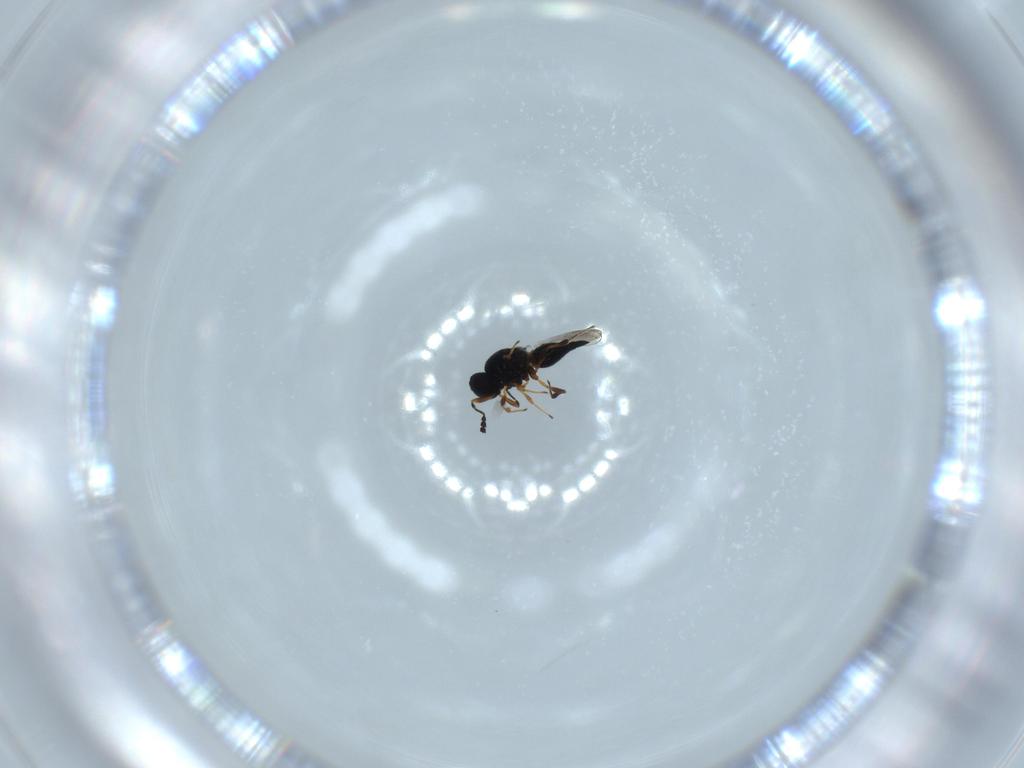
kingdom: Animalia
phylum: Arthropoda
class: Insecta
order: Hymenoptera
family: Platygastridae
